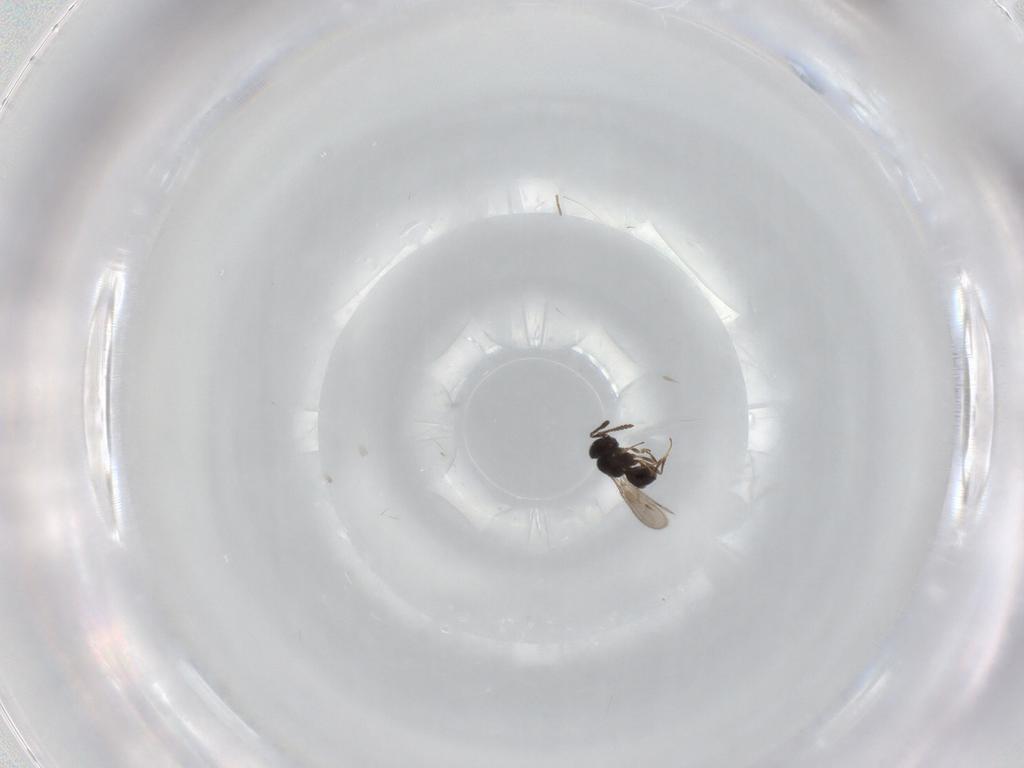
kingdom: Animalia
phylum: Arthropoda
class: Insecta
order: Hymenoptera
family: Scelionidae
